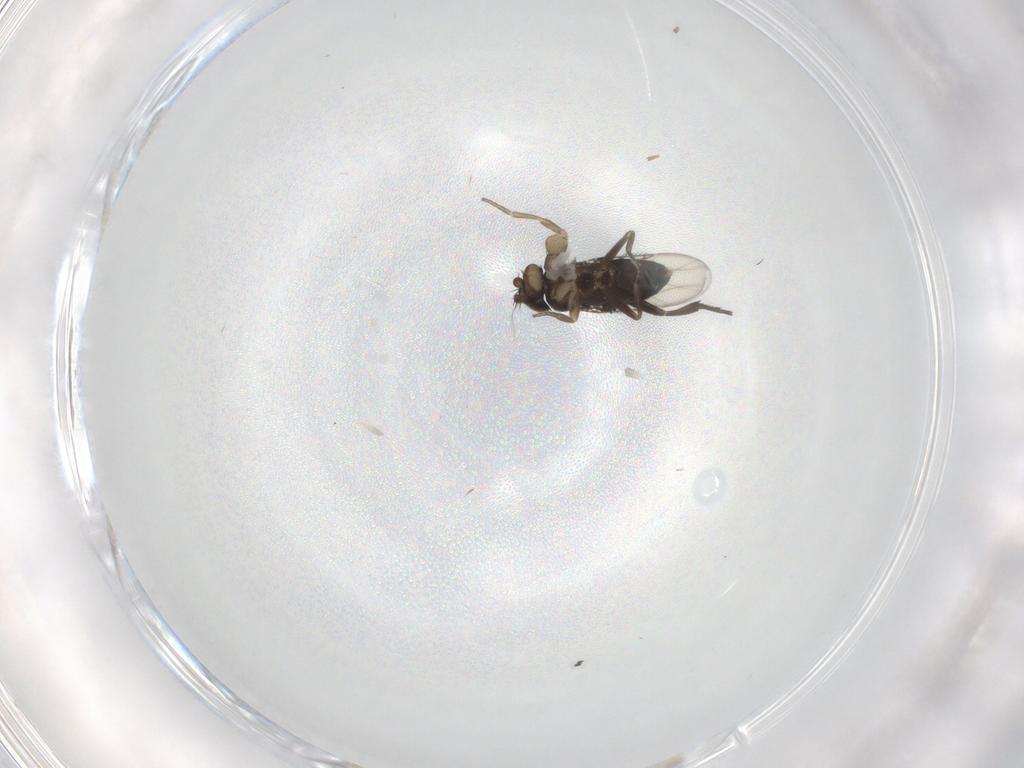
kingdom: Animalia
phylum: Arthropoda
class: Insecta
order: Diptera
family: Phoridae
